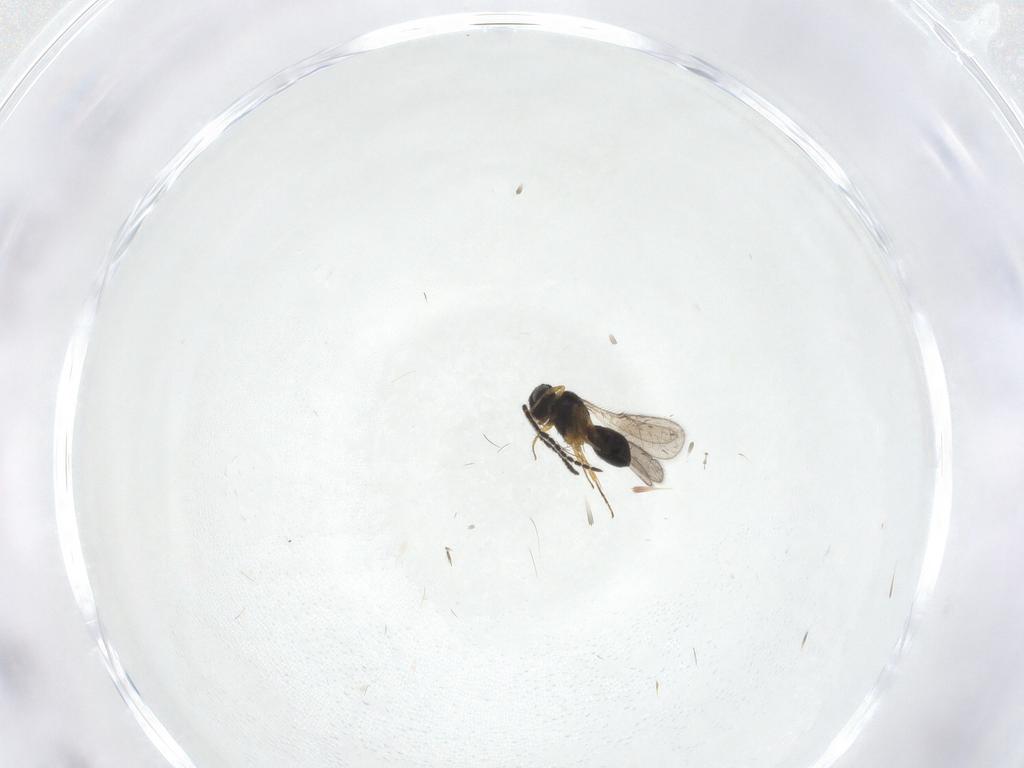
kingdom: Animalia
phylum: Arthropoda
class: Insecta
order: Hymenoptera
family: Scelionidae
